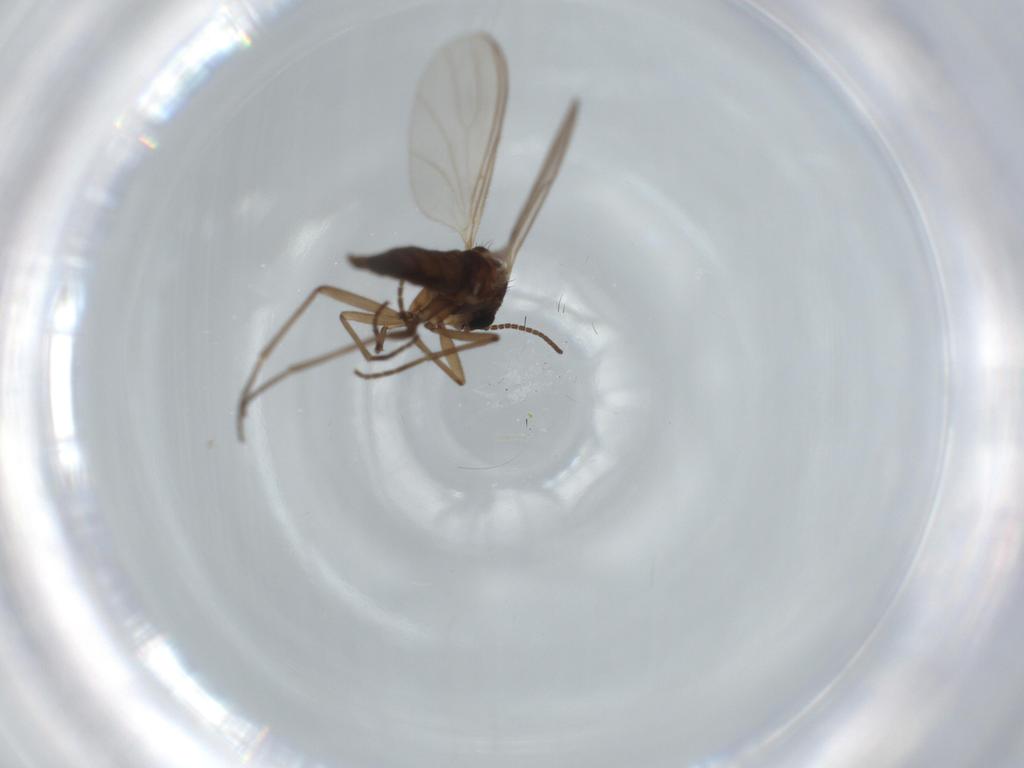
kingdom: Animalia
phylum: Arthropoda
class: Insecta
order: Diptera
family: Sciaridae
